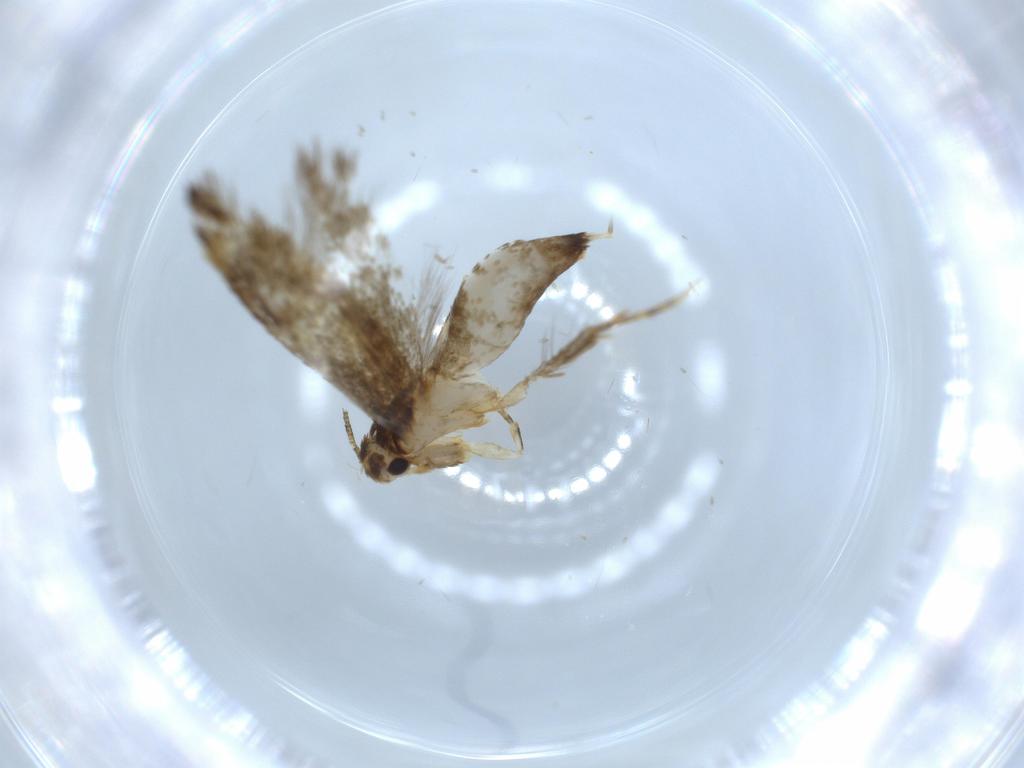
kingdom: Animalia
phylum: Arthropoda
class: Insecta
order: Lepidoptera
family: Tineidae
